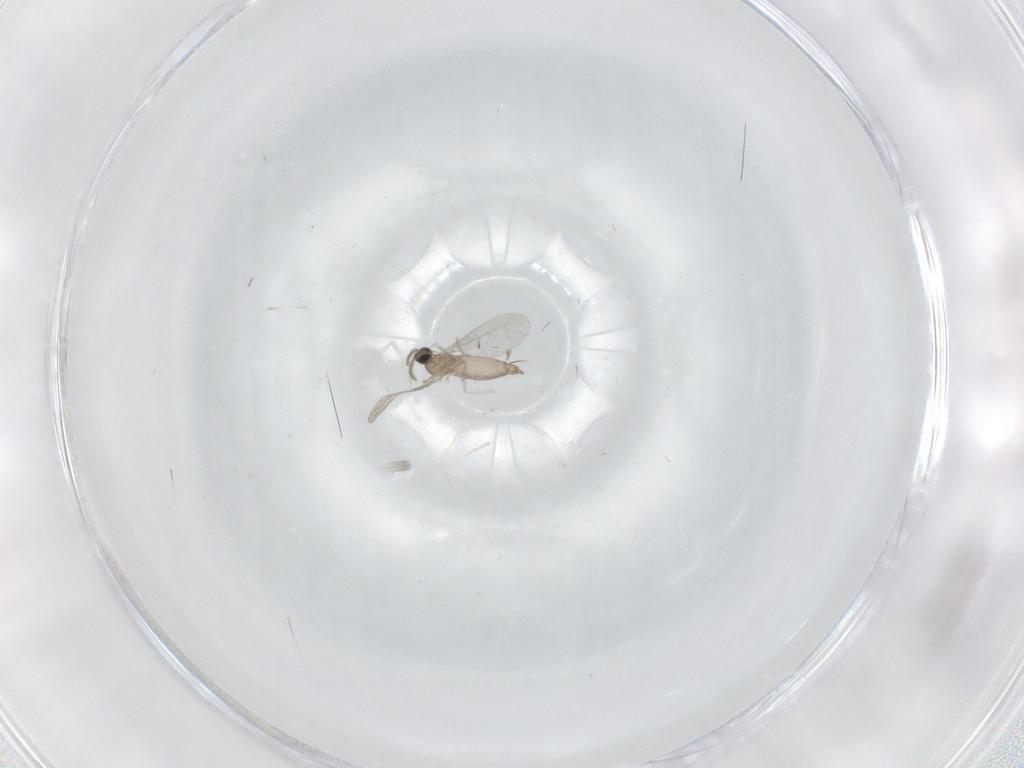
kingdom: Animalia
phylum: Arthropoda
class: Insecta
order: Diptera
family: Cecidomyiidae
